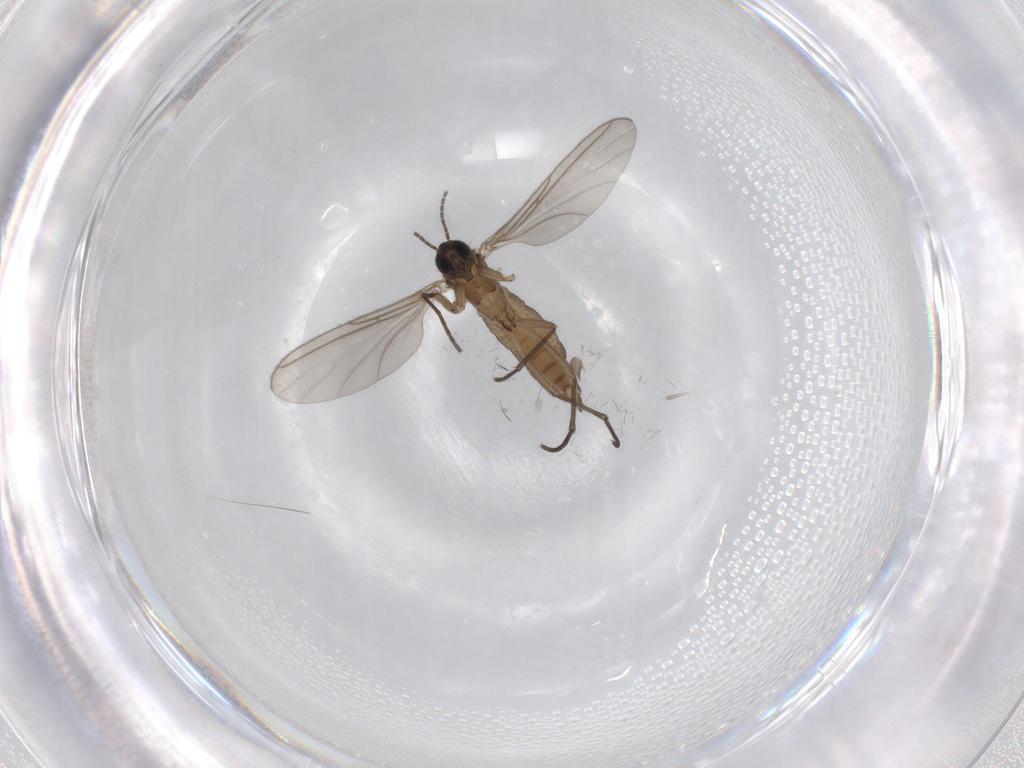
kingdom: Animalia
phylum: Arthropoda
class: Insecta
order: Diptera
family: Sciaridae
